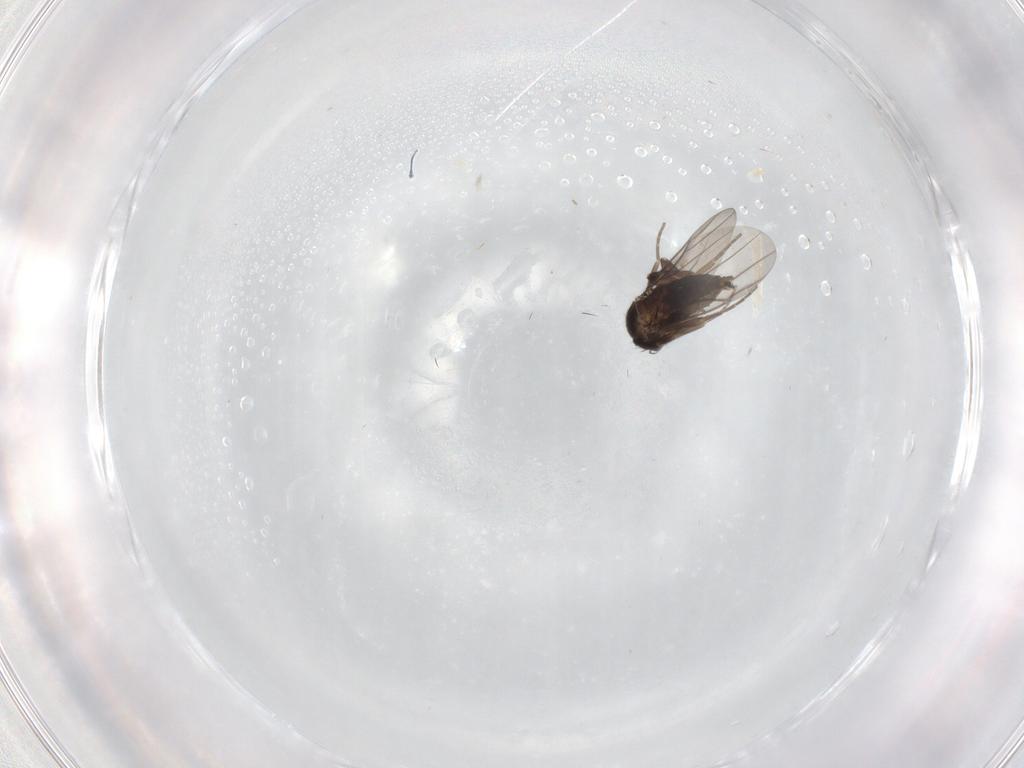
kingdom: Animalia
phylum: Arthropoda
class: Insecta
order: Diptera
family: Phoridae
